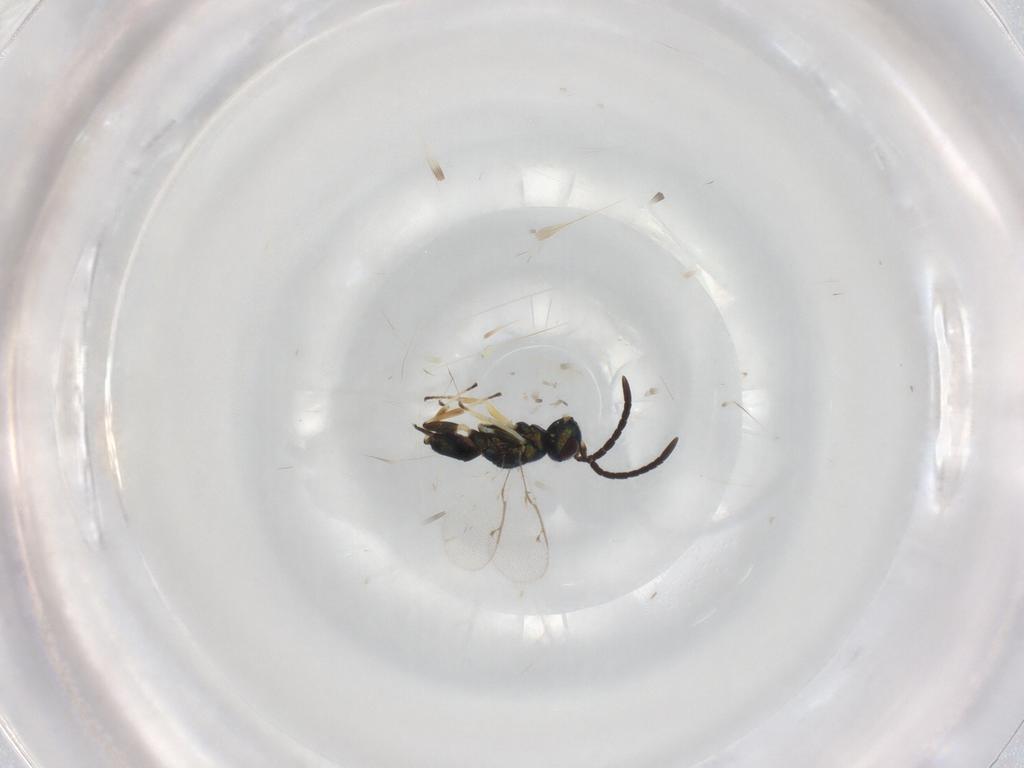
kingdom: Animalia
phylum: Arthropoda
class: Insecta
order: Hymenoptera
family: Eupelmidae
